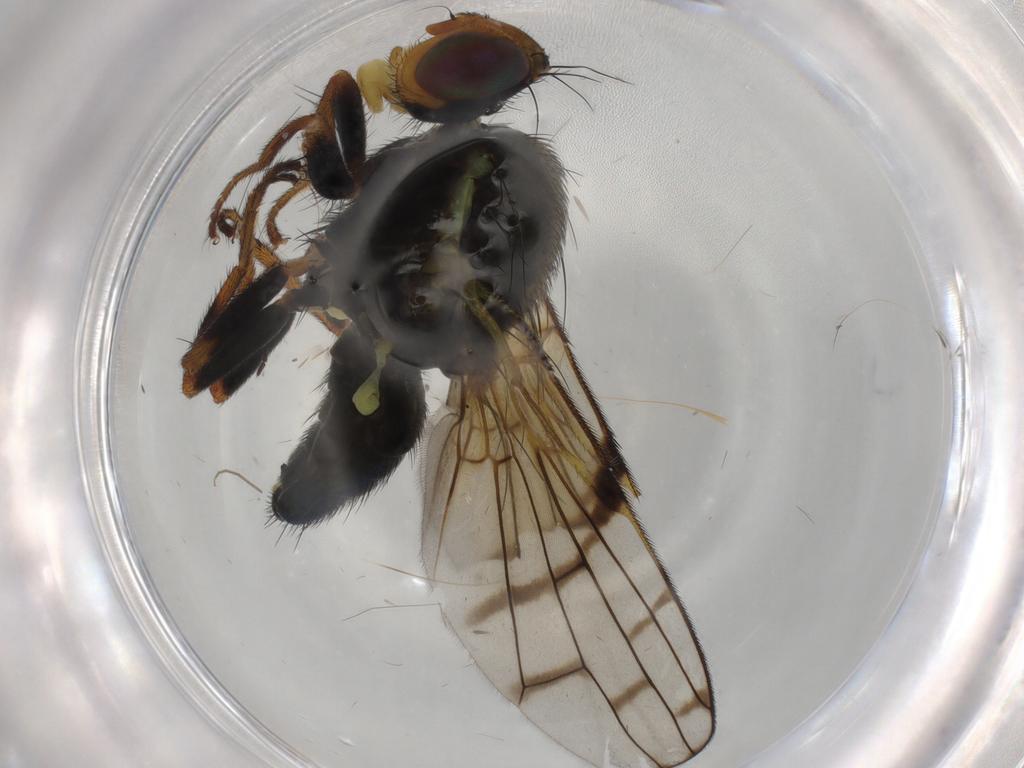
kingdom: Animalia
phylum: Arthropoda
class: Insecta
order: Diptera
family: Tephritidae
